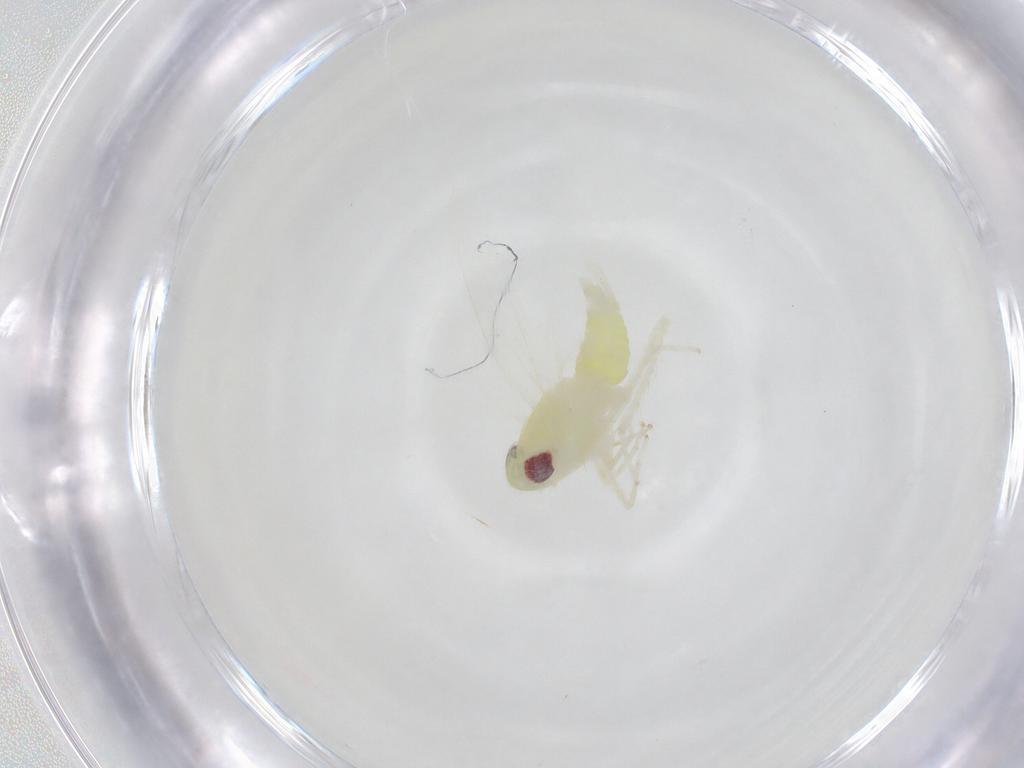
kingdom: Animalia
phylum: Arthropoda
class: Insecta
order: Hemiptera
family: Cicadellidae
